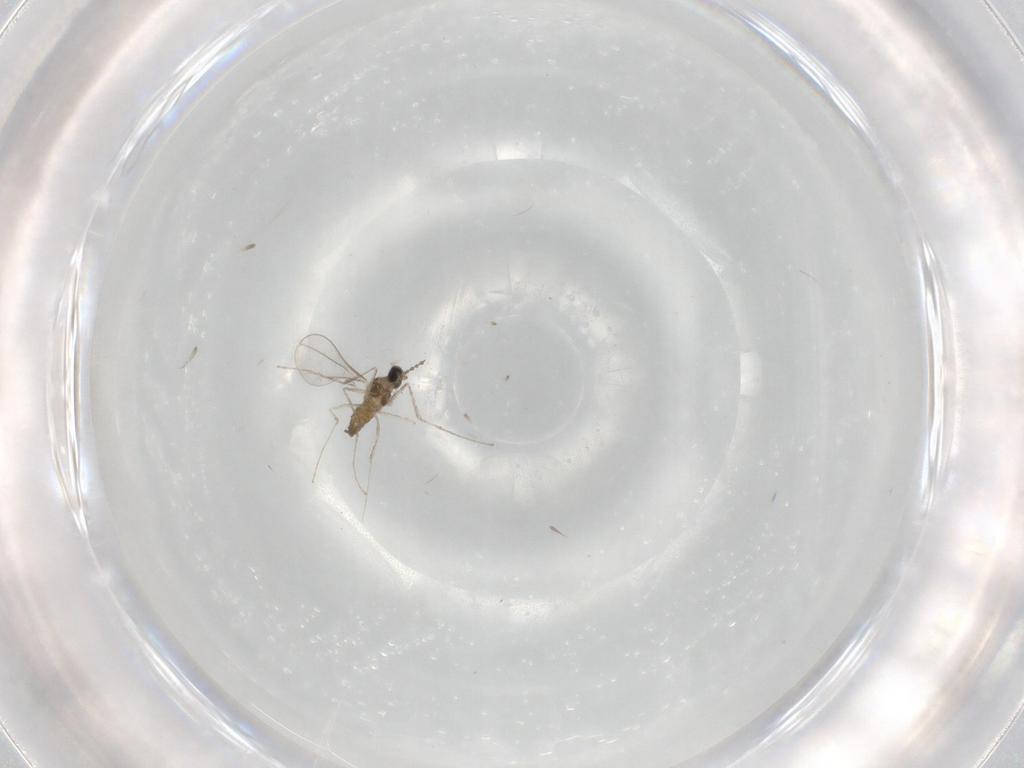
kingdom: Animalia
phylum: Arthropoda
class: Insecta
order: Diptera
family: Cecidomyiidae
